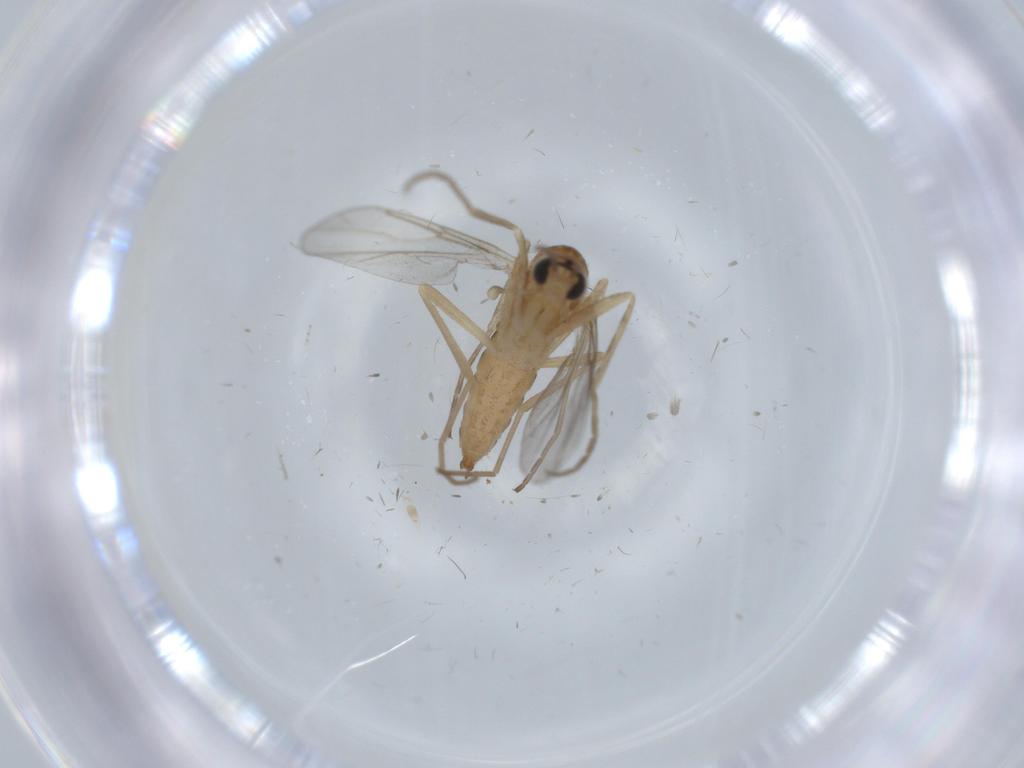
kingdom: Animalia
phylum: Arthropoda
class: Insecta
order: Diptera
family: Cecidomyiidae
